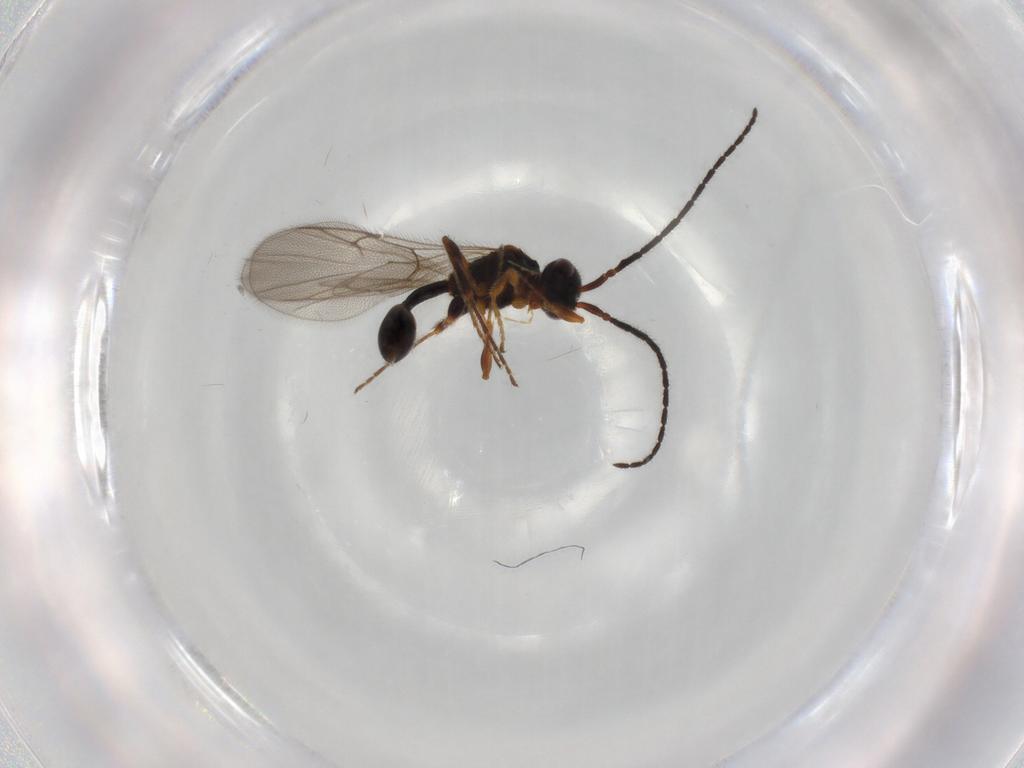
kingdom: Animalia
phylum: Arthropoda
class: Insecta
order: Hymenoptera
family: Diapriidae
